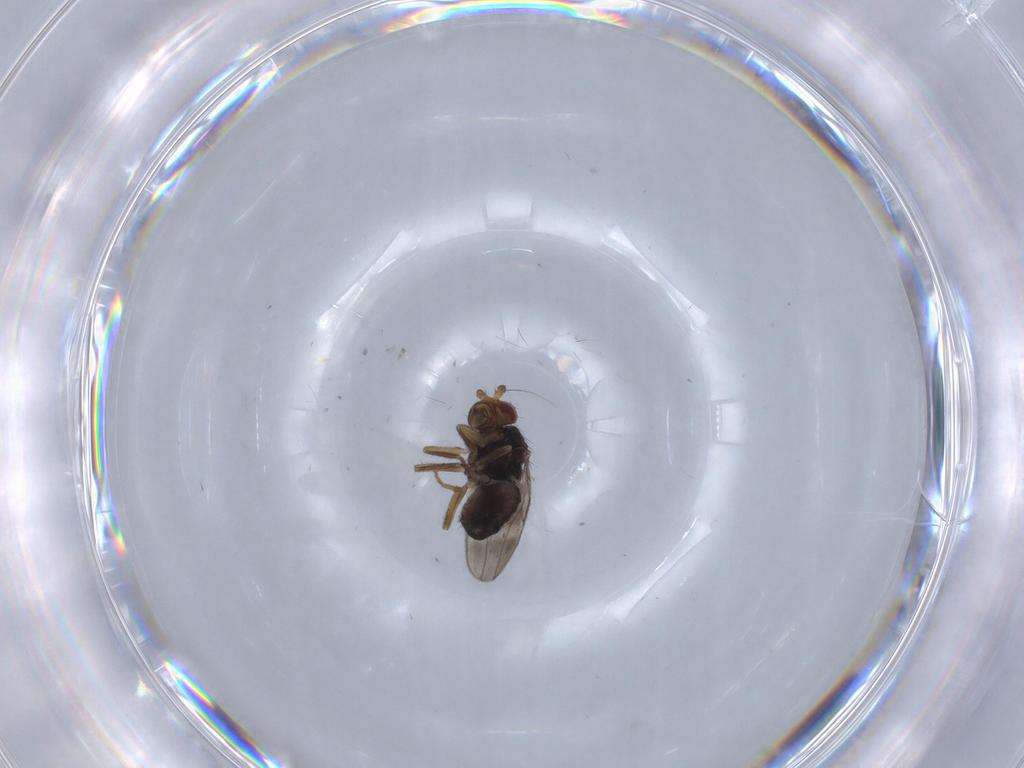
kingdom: Animalia
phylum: Arthropoda
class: Insecta
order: Diptera
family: Sphaeroceridae
